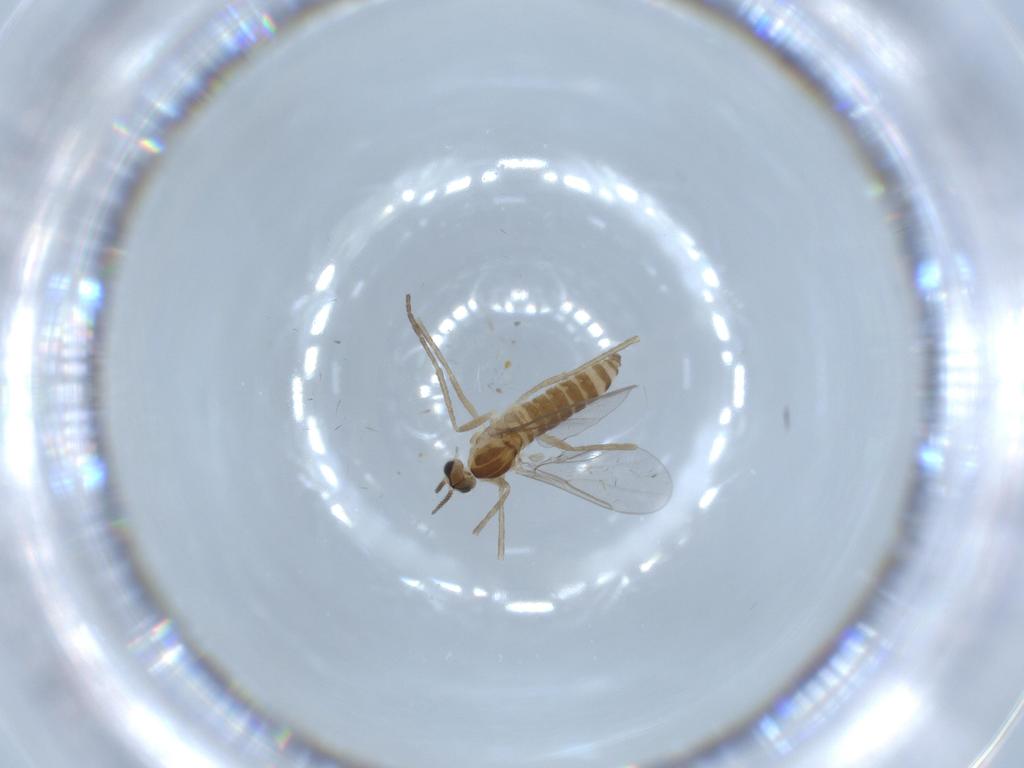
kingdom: Animalia
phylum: Arthropoda
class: Insecta
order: Diptera
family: Cecidomyiidae
